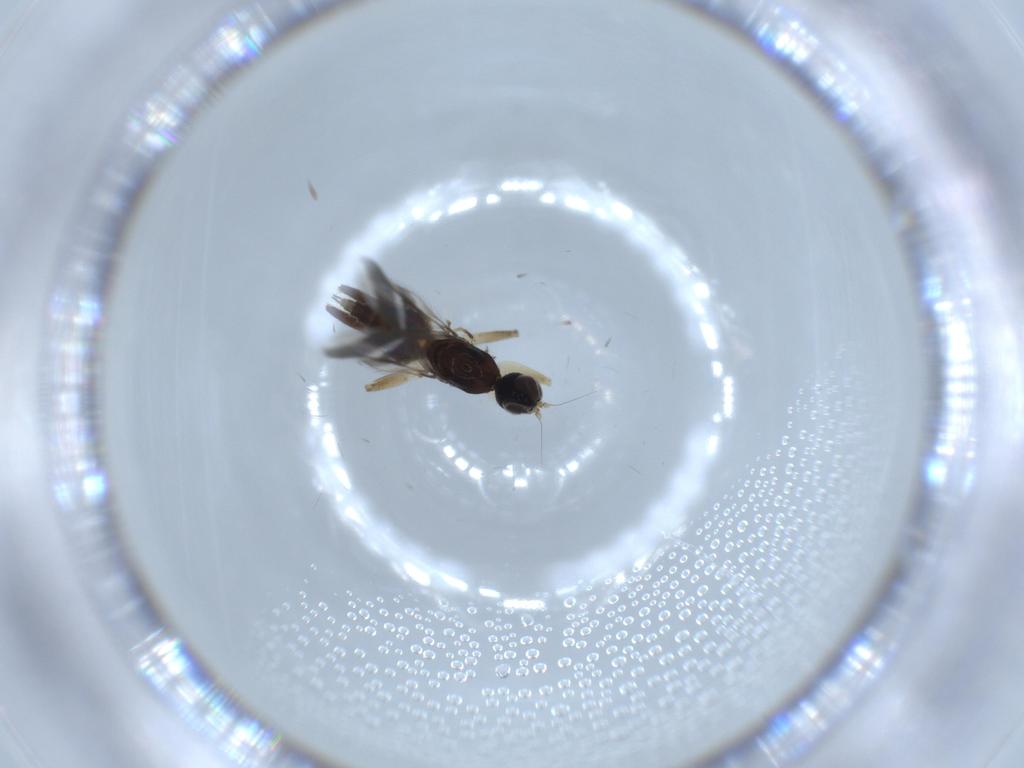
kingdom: Animalia
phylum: Arthropoda
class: Insecta
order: Diptera
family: Hybotidae
